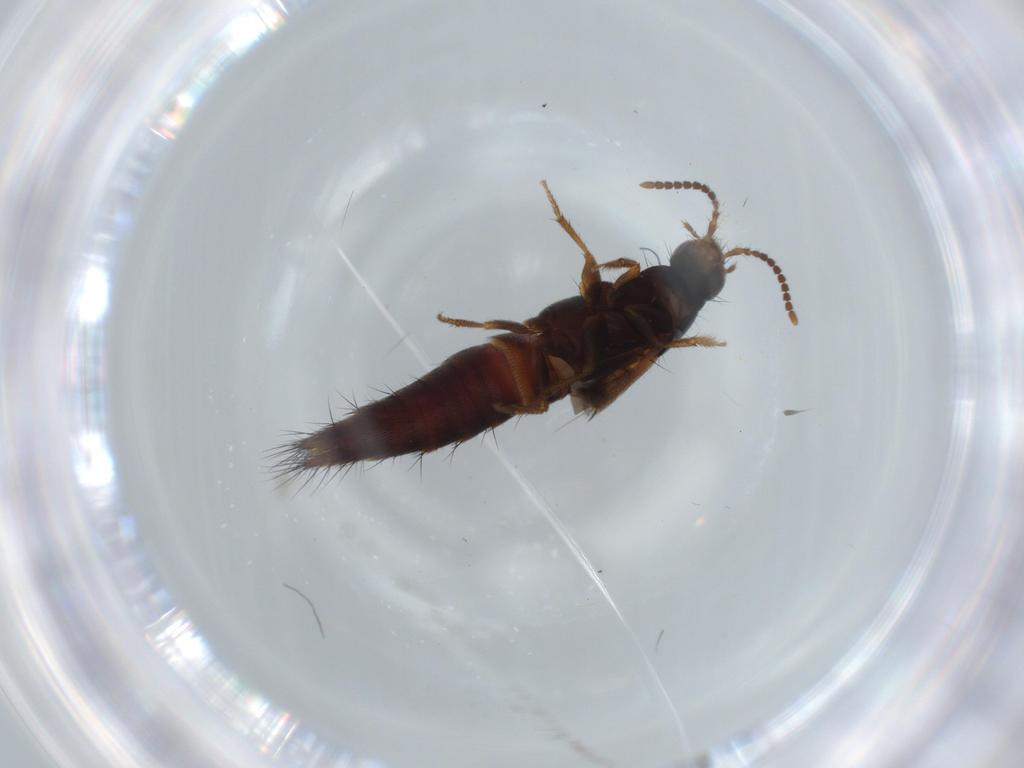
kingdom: Animalia
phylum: Arthropoda
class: Insecta
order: Coleoptera
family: Staphylinidae
